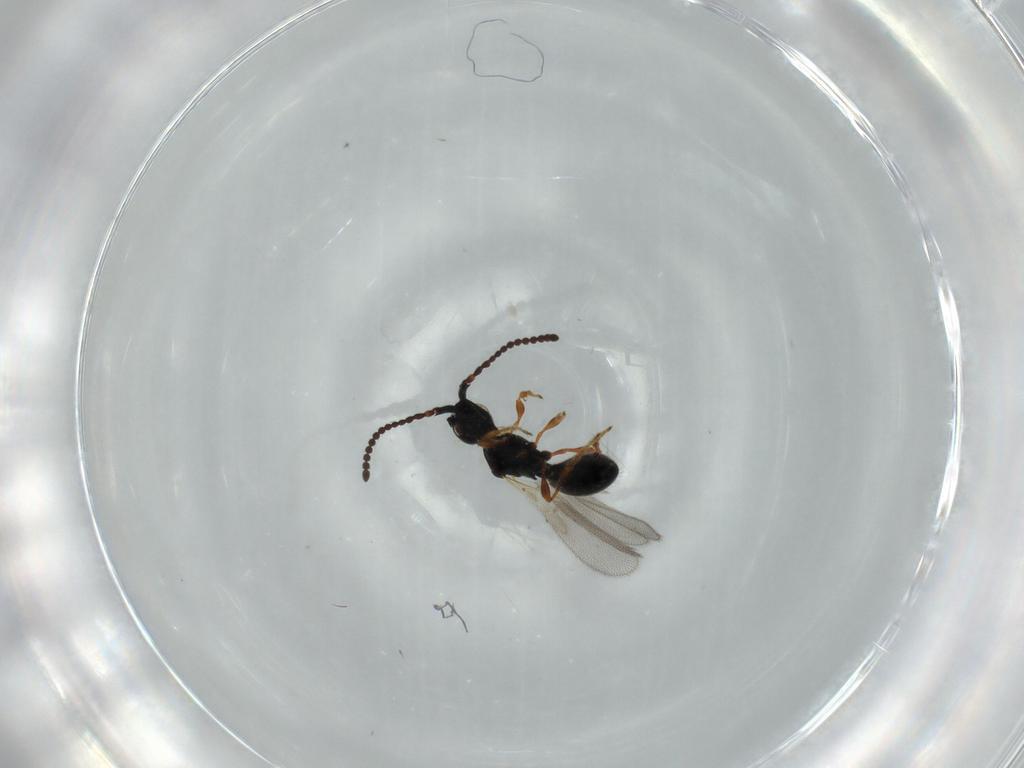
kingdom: Animalia
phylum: Arthropoda
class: Insecta
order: Hymenoptera
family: Diapriidae
